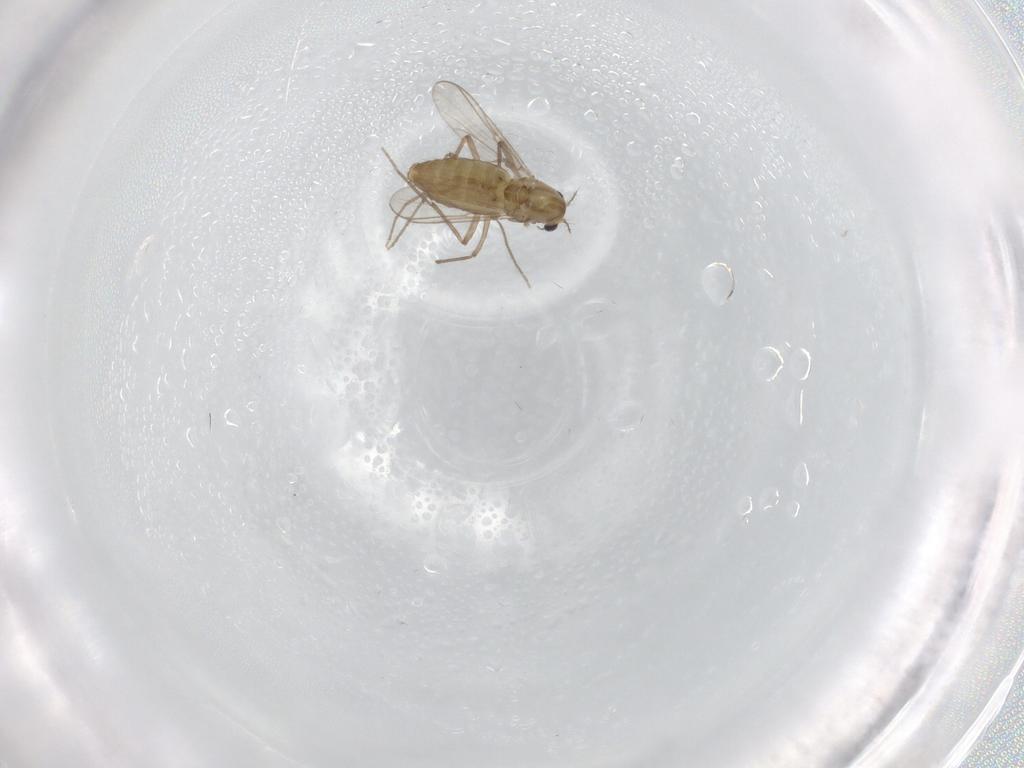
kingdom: Animalia
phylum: Arthropoda
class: Insecta
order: Diptera
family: Chironomidae
